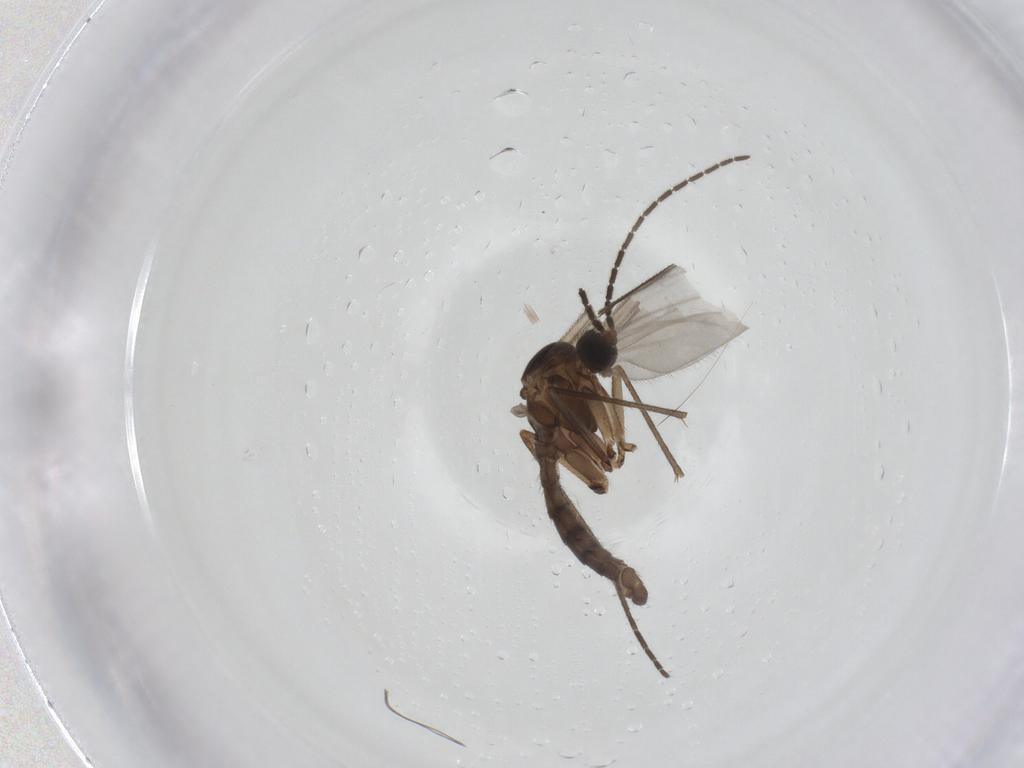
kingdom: Animalia
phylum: Arthropoda
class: Insecta
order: Diptera
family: Sciaridae
